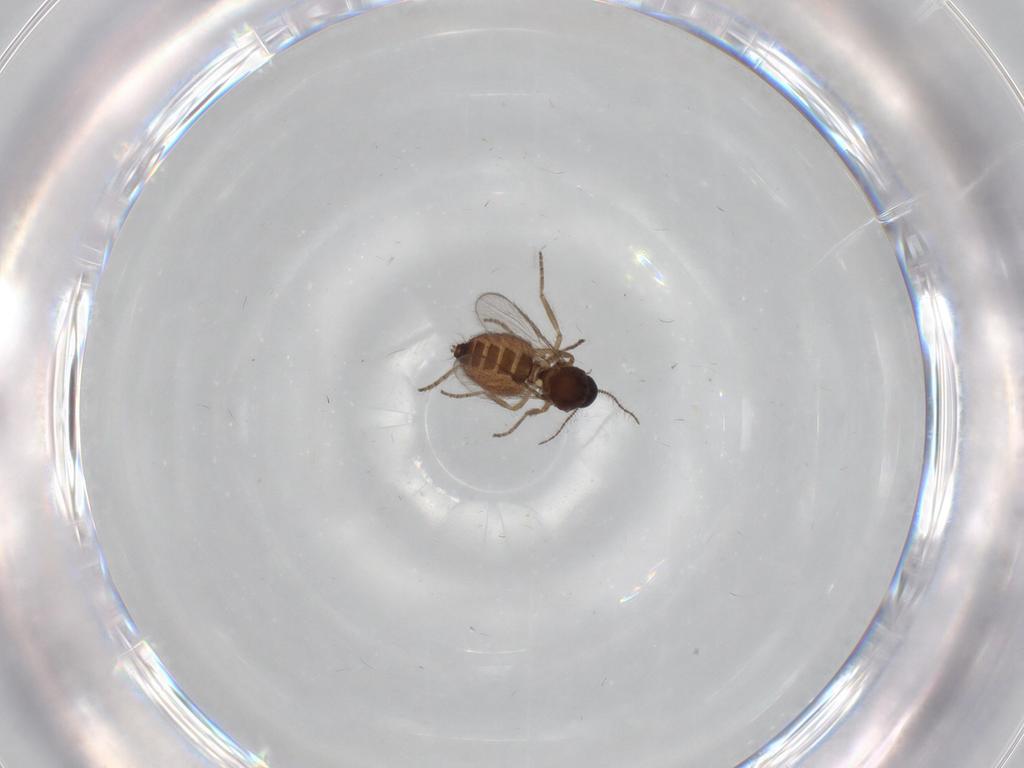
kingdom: Animalia
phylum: Arthropoda
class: Insecta
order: Diptera
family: Ceratopogonidae
